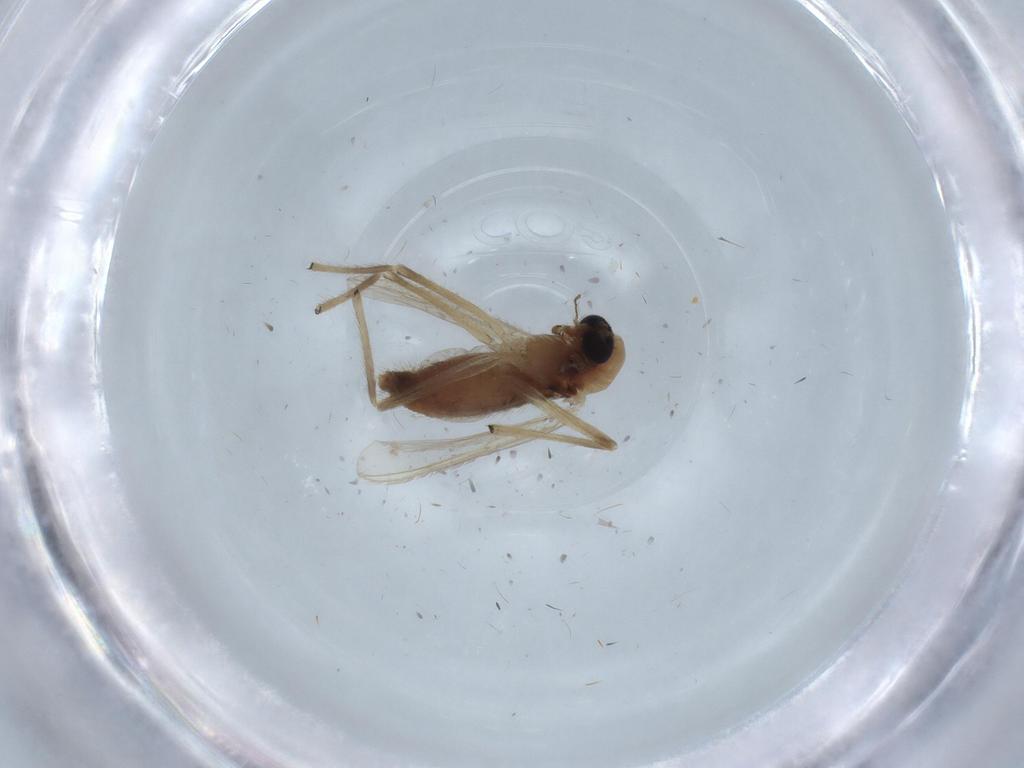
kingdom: Animalia
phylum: Arthropoda
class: Insecta
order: Diptera
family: Chironomidae
